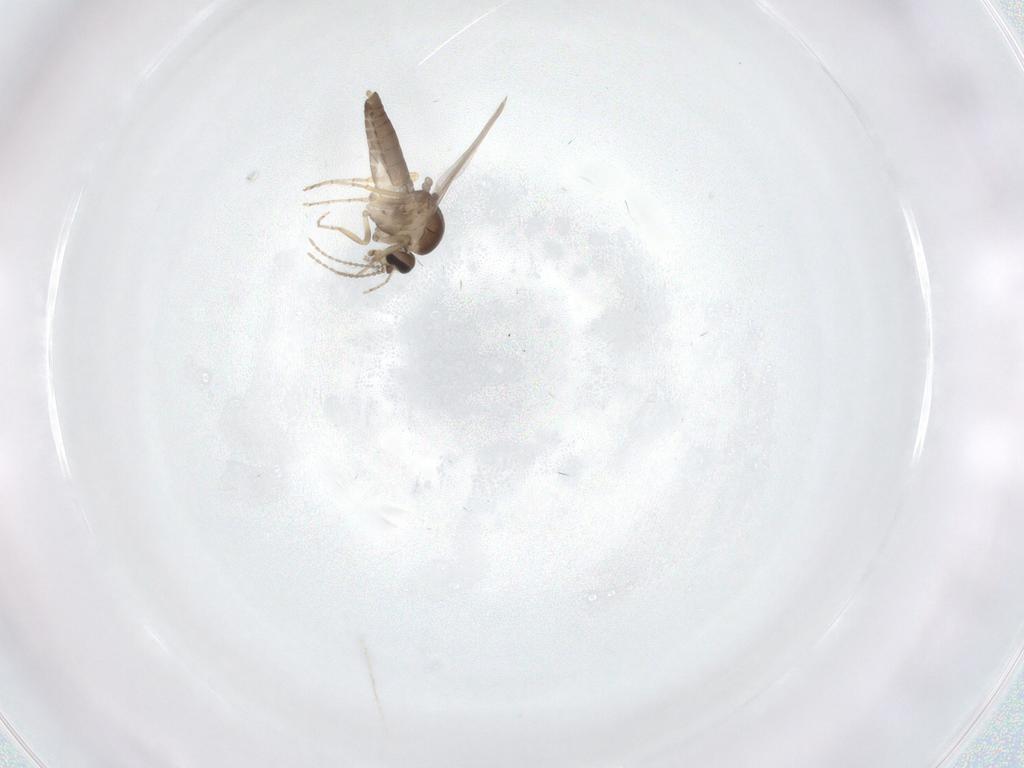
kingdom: Animalia
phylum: Arthropoda
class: Insecta
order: Diptera
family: Ceratopogonidae
